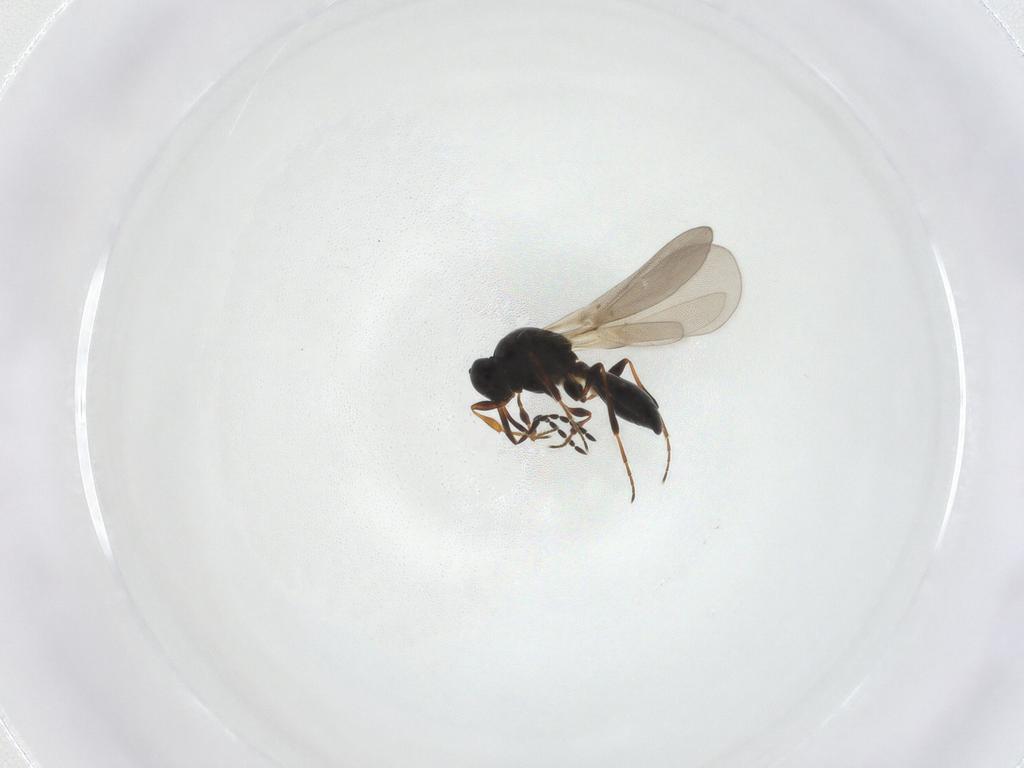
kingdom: Animalia
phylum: Arthropoda
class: Insecta
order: Hymenoptera
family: Platygastridae
